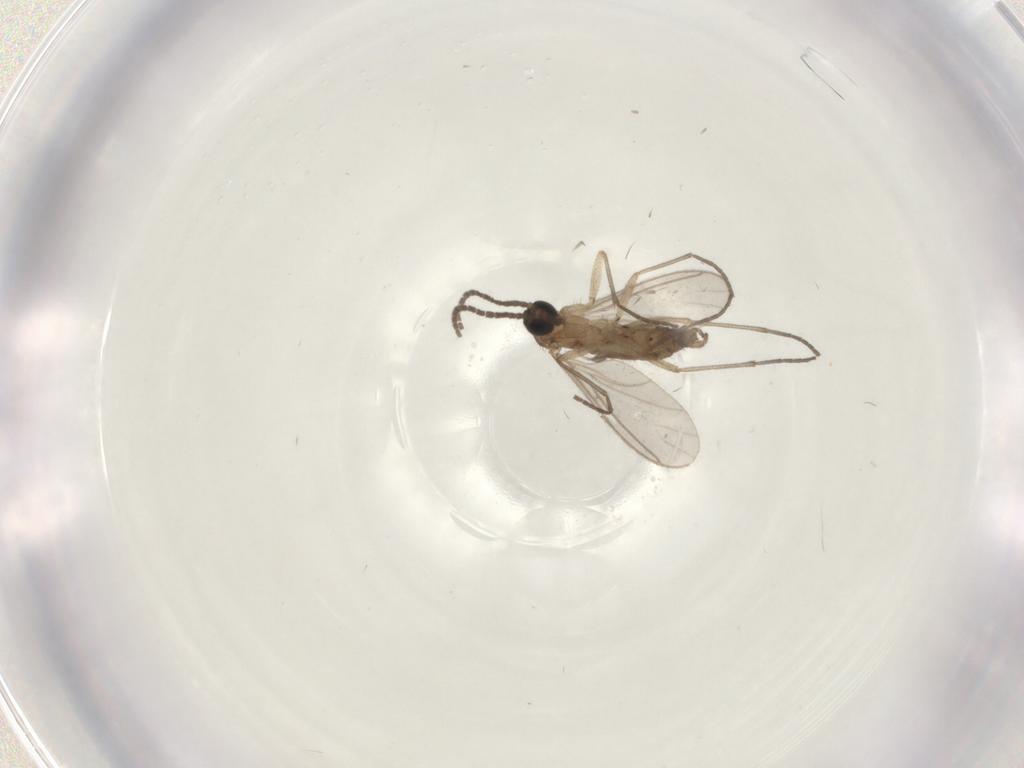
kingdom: Animalia
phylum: Arthropoda
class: Insecta
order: Diptera
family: Sciaridae
